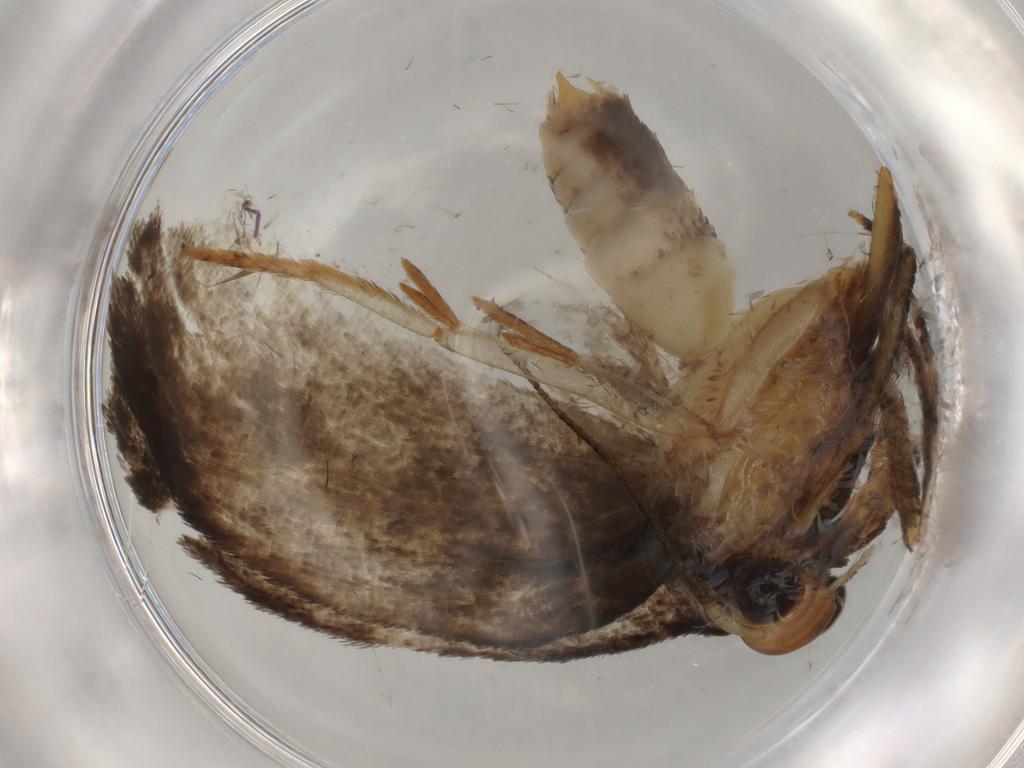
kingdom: Animalia
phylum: Arthropoda
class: Insecta
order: Lepidoptera
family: Oecophoridae
